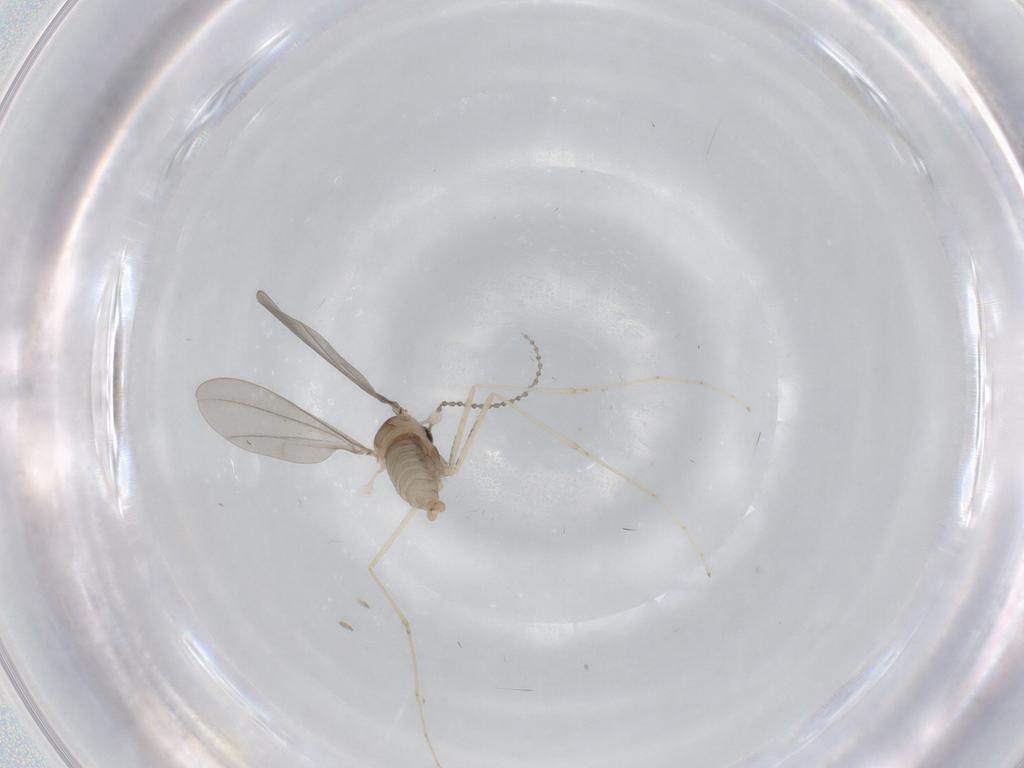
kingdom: Animalia
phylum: Arthropoda
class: Insecta
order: Diptera
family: Cecidomyiidae
